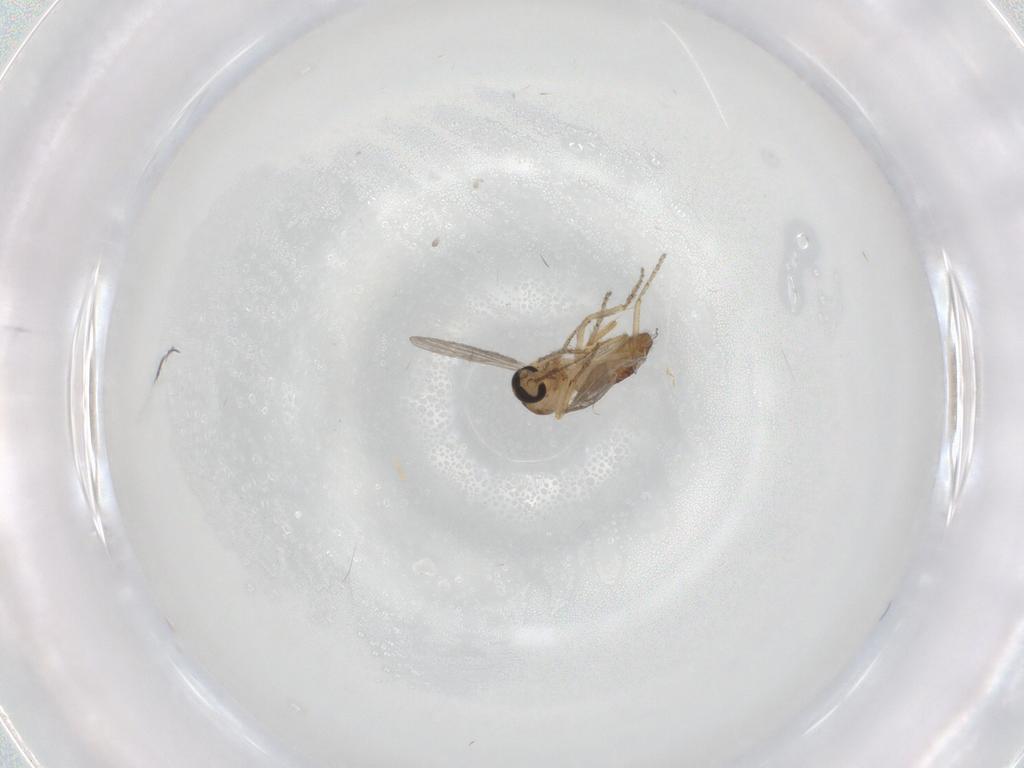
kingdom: Animalia
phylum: Arthropoda
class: Insecta
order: Diptera
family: Ceratopogonidae
